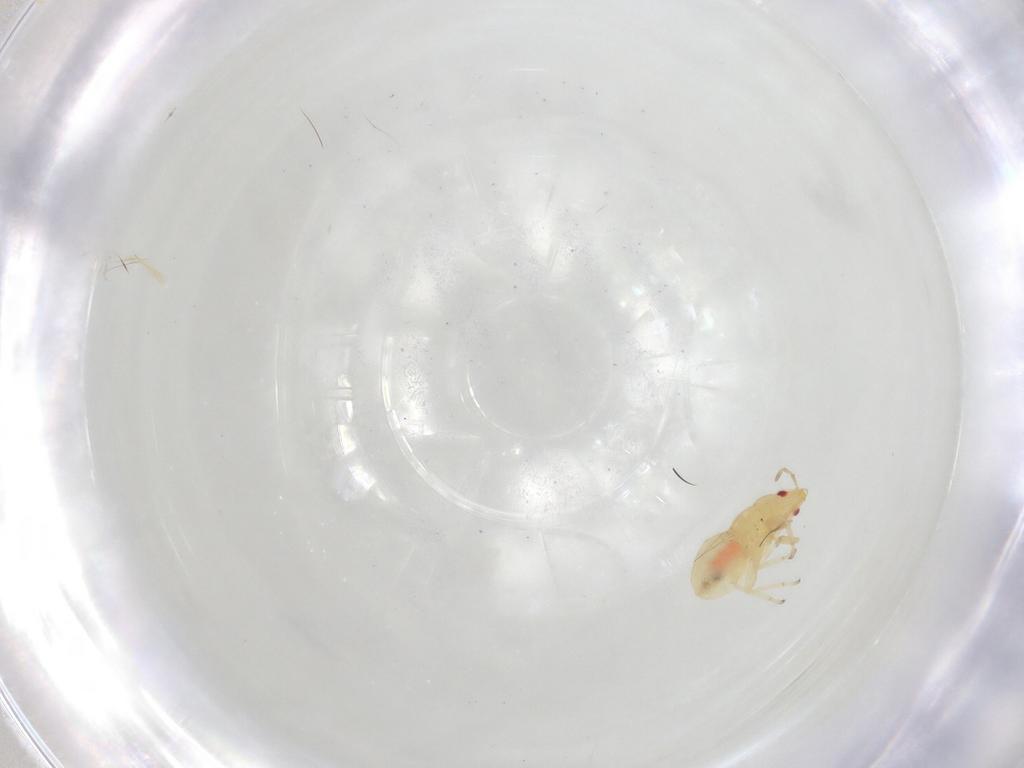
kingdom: Animalia
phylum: Arthropoda
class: Insecta
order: Hemiptera
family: Anthocoridae
